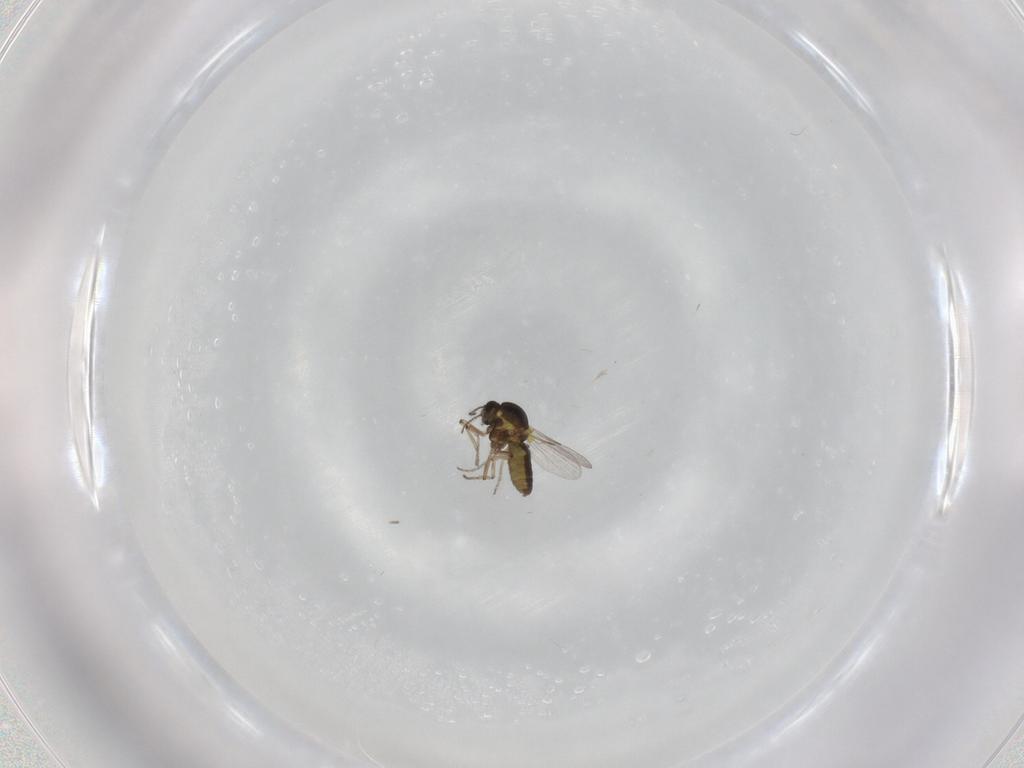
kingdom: Animalia
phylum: Arthropoda
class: Insecta
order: Diptera
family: Ceratopogonidae
